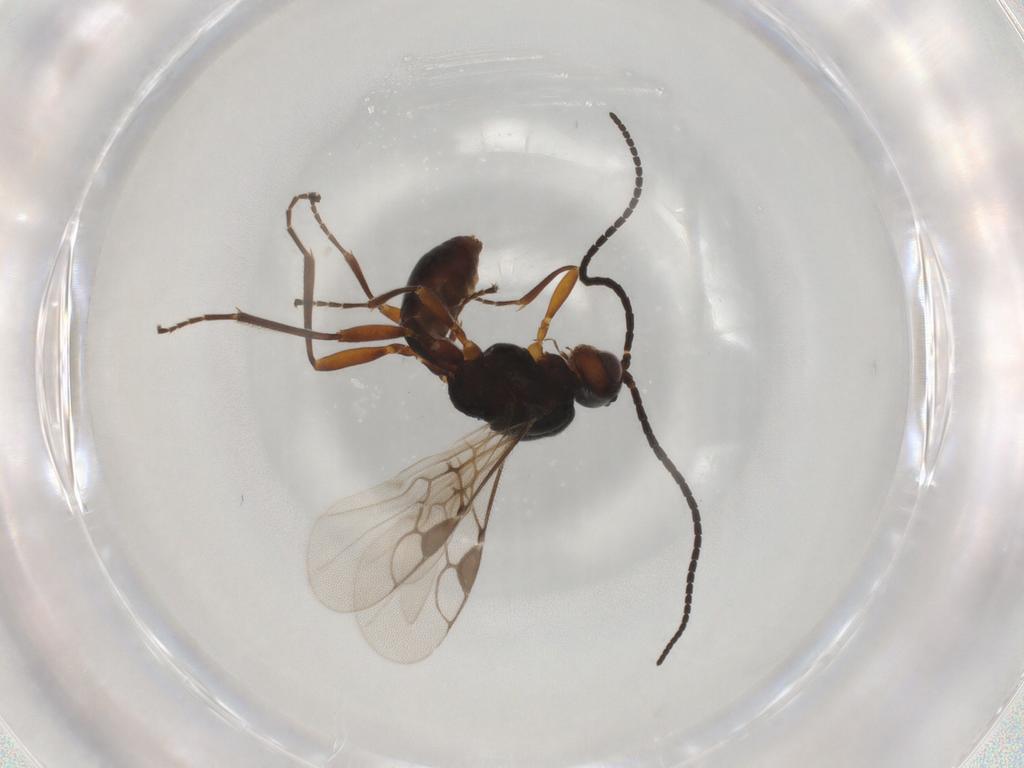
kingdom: Animalia
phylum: Arthropoda
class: Insecta
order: Hymenoptera
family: Braconidae
